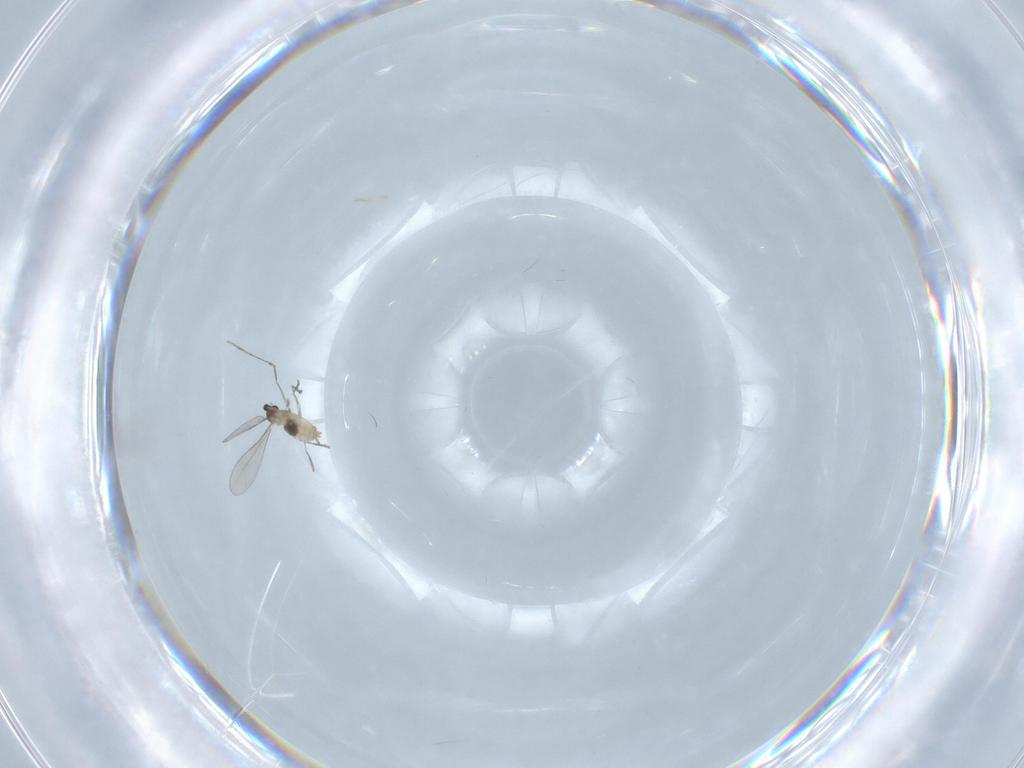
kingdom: Animalia
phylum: Arthropoda
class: Insecta
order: Diptera
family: Cecidomyiidae
